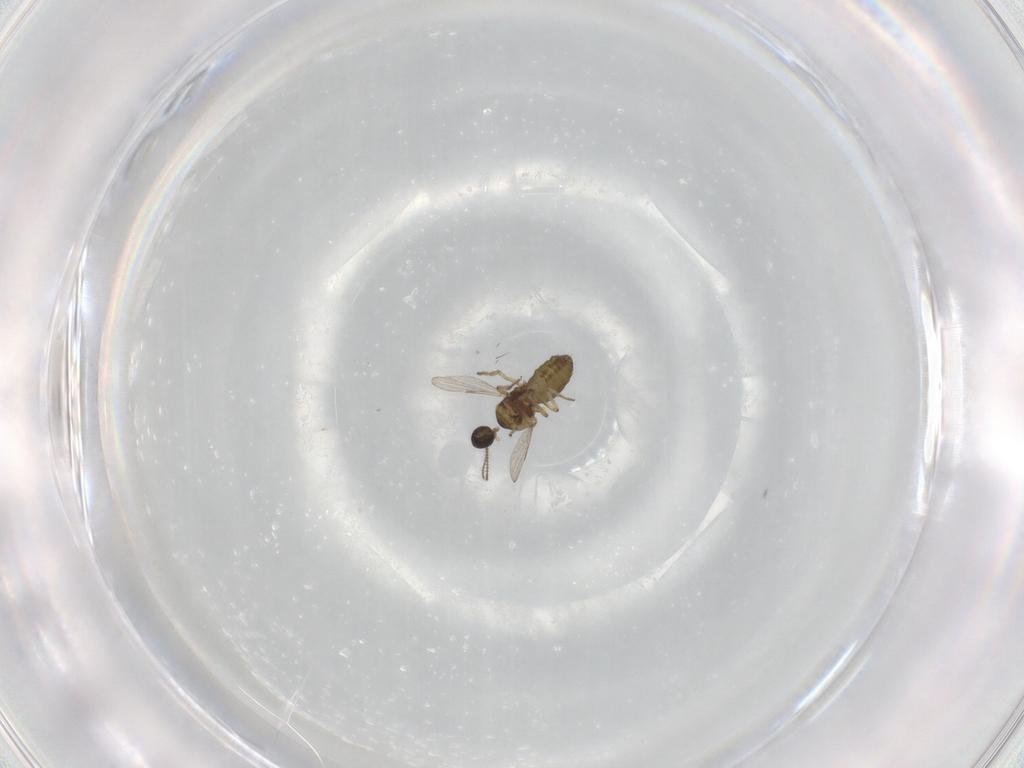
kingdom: Animalia
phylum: Arthropoda
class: Insecta
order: Diptera
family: Ceratopogonidae
